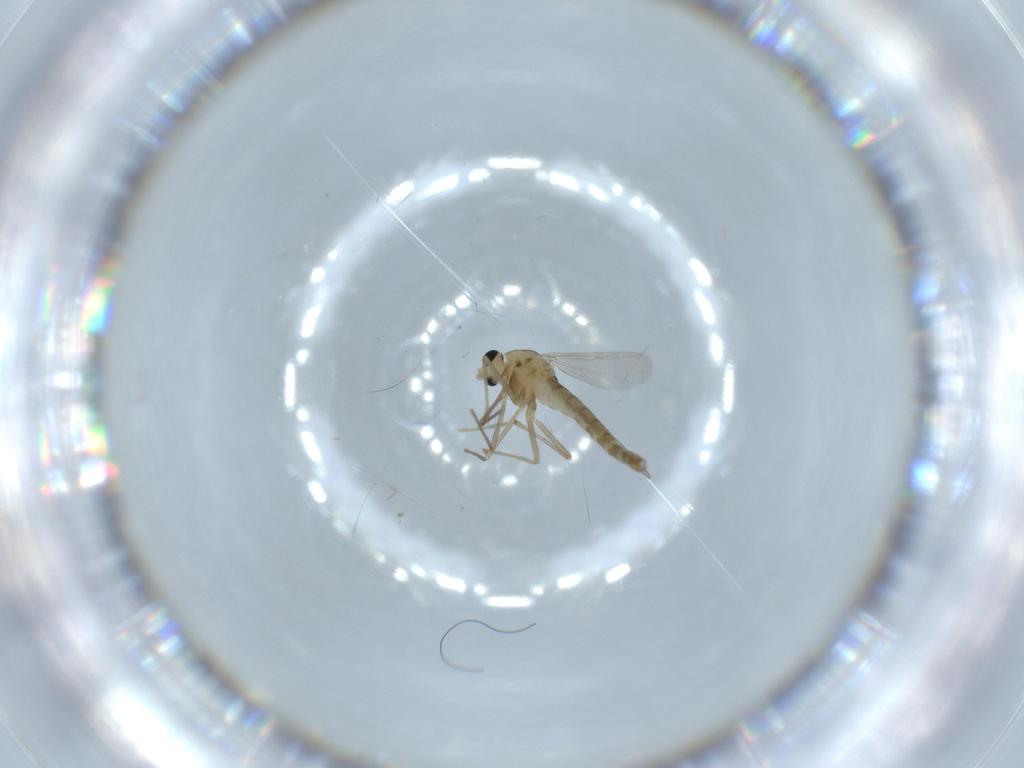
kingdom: Animalia
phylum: Arthropoda
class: Insecta
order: Diptera
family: Chironomidae
